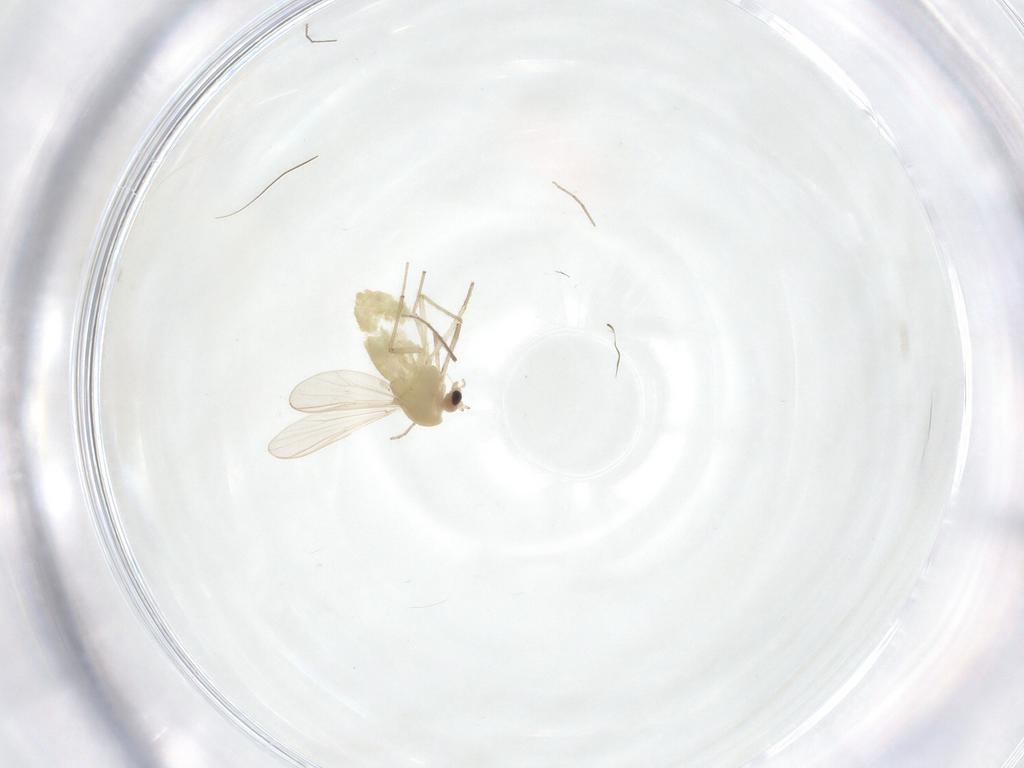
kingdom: Animalia
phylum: Arthropoda
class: Insecta
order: Diptera
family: Chironomidae
